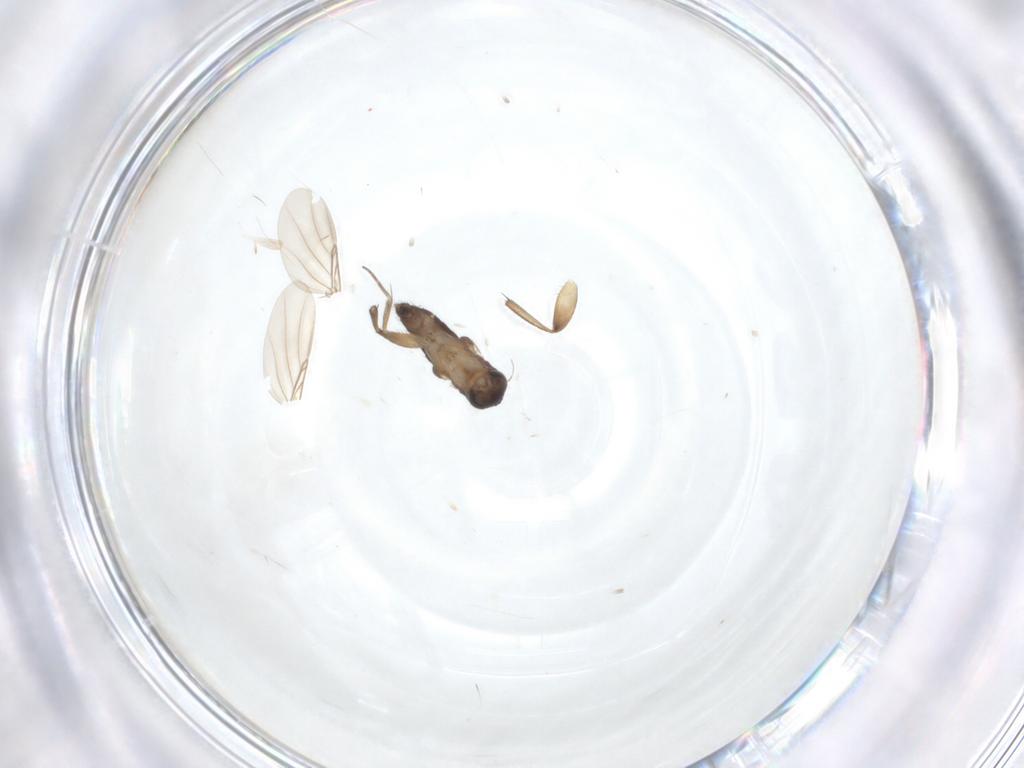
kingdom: Animalia
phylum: Arthropoda
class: Insecta
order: Diptera
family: Phoridae
